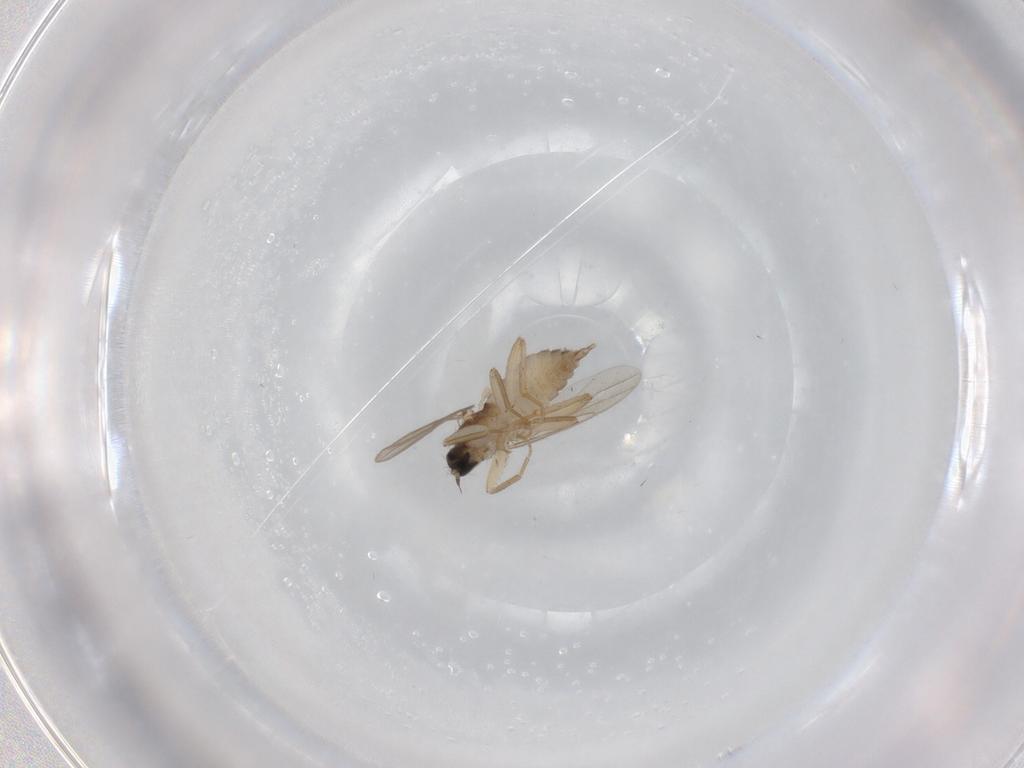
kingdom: Animalia
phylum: Arthropoda
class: Insecta
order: Diptera
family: Hybotidae
